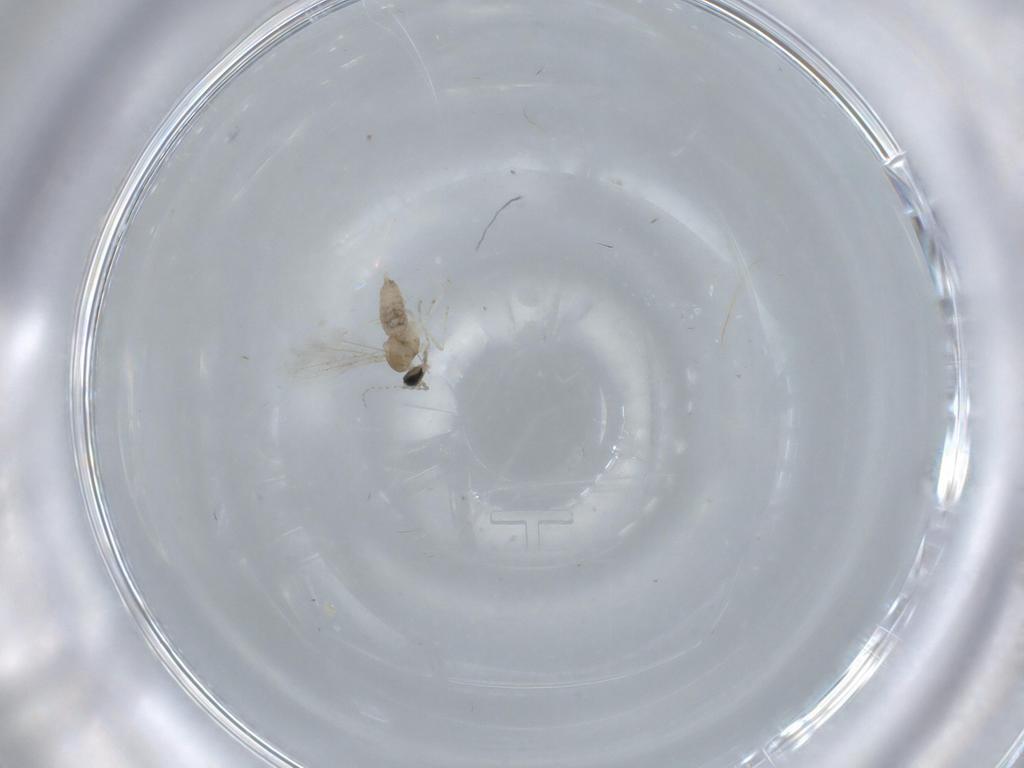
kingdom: Animalia
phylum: Arthropoda
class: Insecta
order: Diptera
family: Cecidomyiidae
